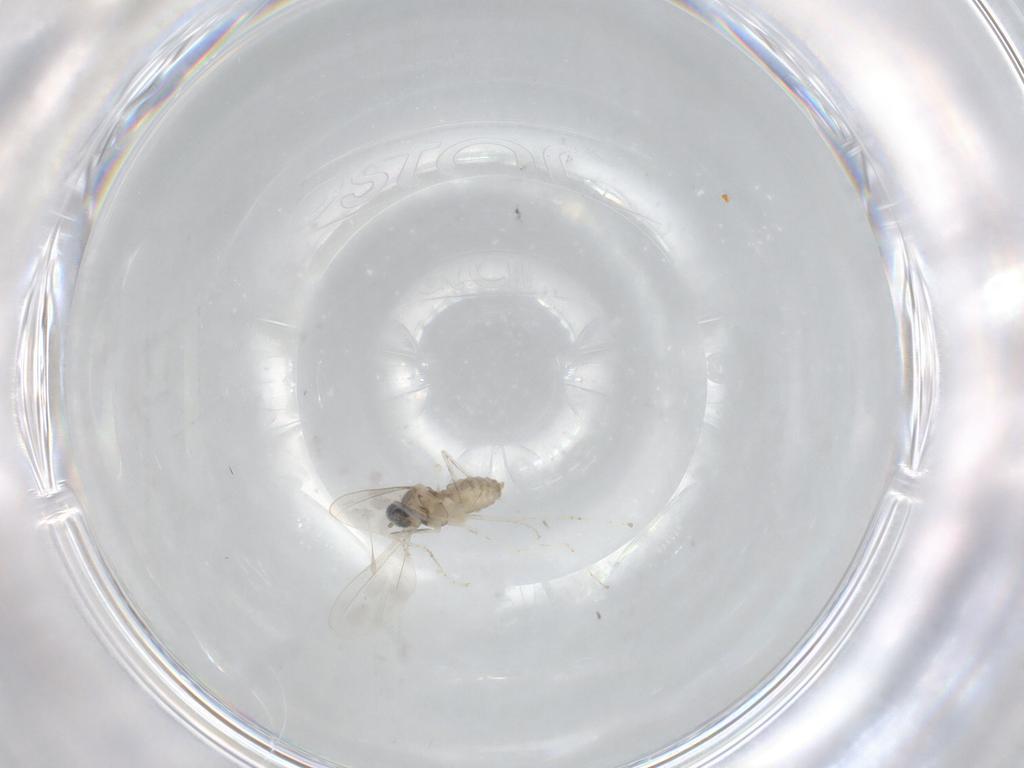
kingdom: Animalia
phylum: Arthropoda
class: Insecta
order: Diptera
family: Cecidomyiidae
